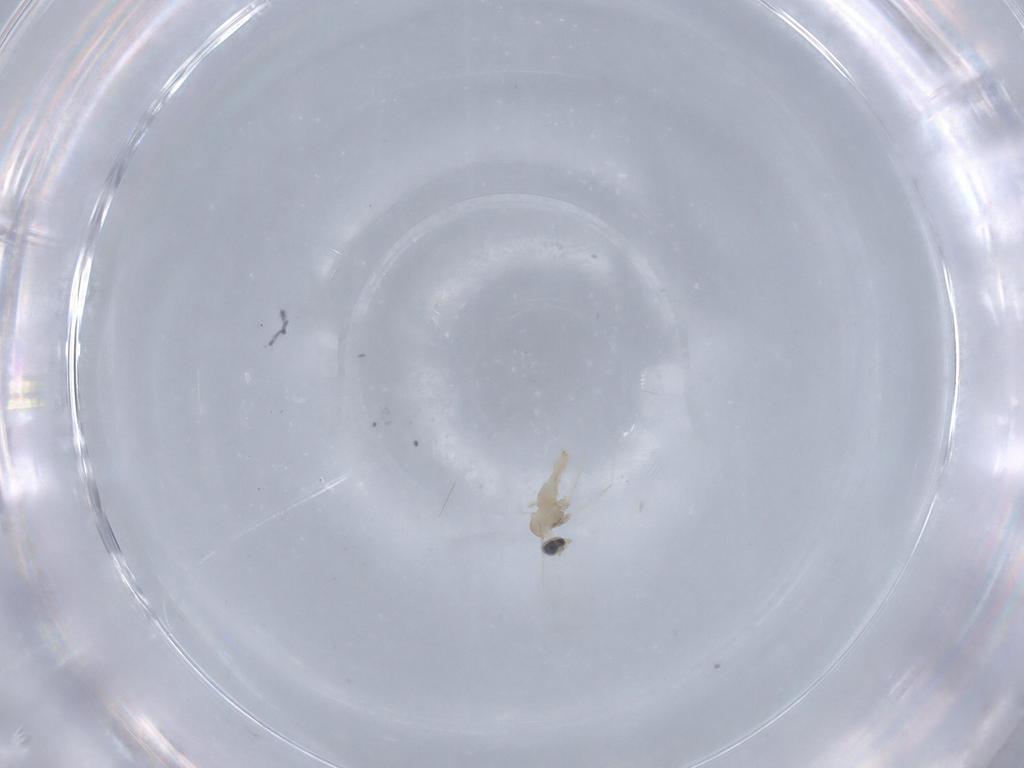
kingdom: Animalia
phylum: Arthropoda
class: Insecta
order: Diptera
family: Cecidomyiidae
